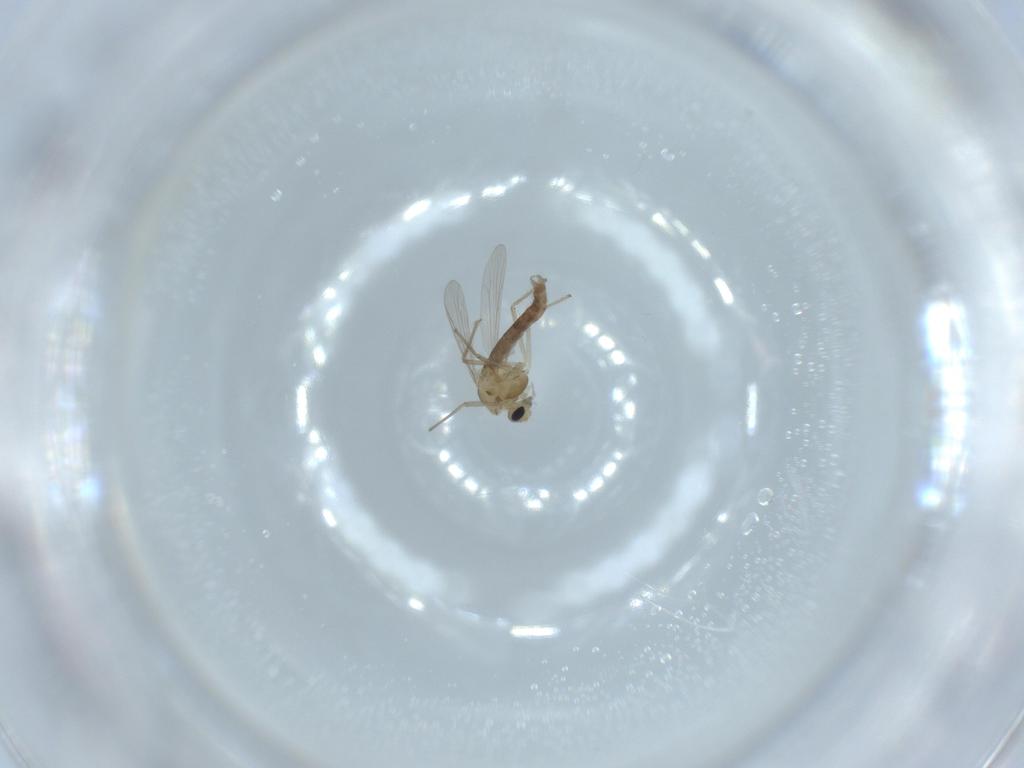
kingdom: Animalia
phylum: Arthropoda
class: Insecta
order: Diptera
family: Chironomidae
